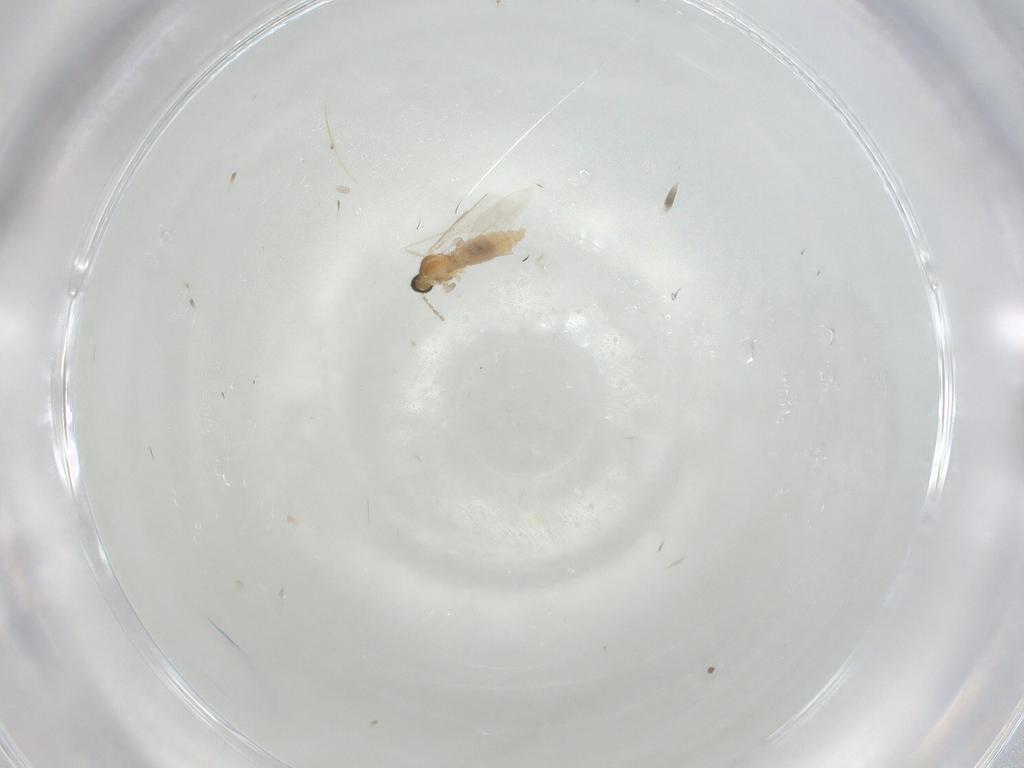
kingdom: Animalia
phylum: Arthropoda
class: Insecta
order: Diptera
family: Cecidomyiidae
